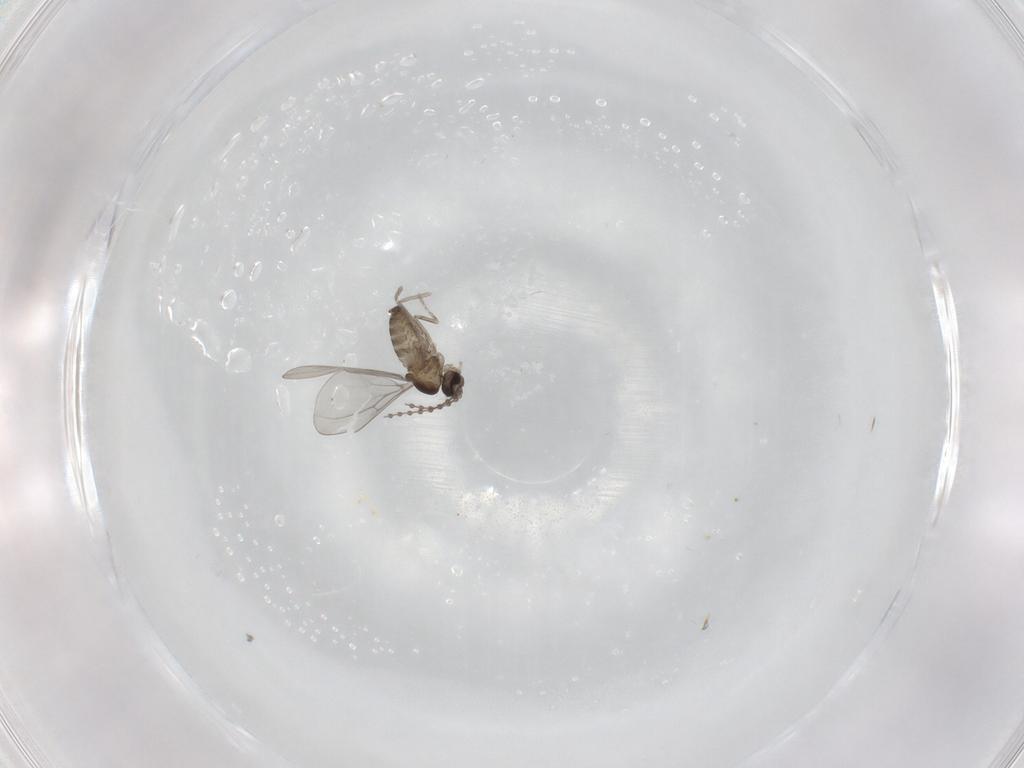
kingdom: Animalia
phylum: Arthropoda
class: Insecta
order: Diptera
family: Cecidomyiidae
